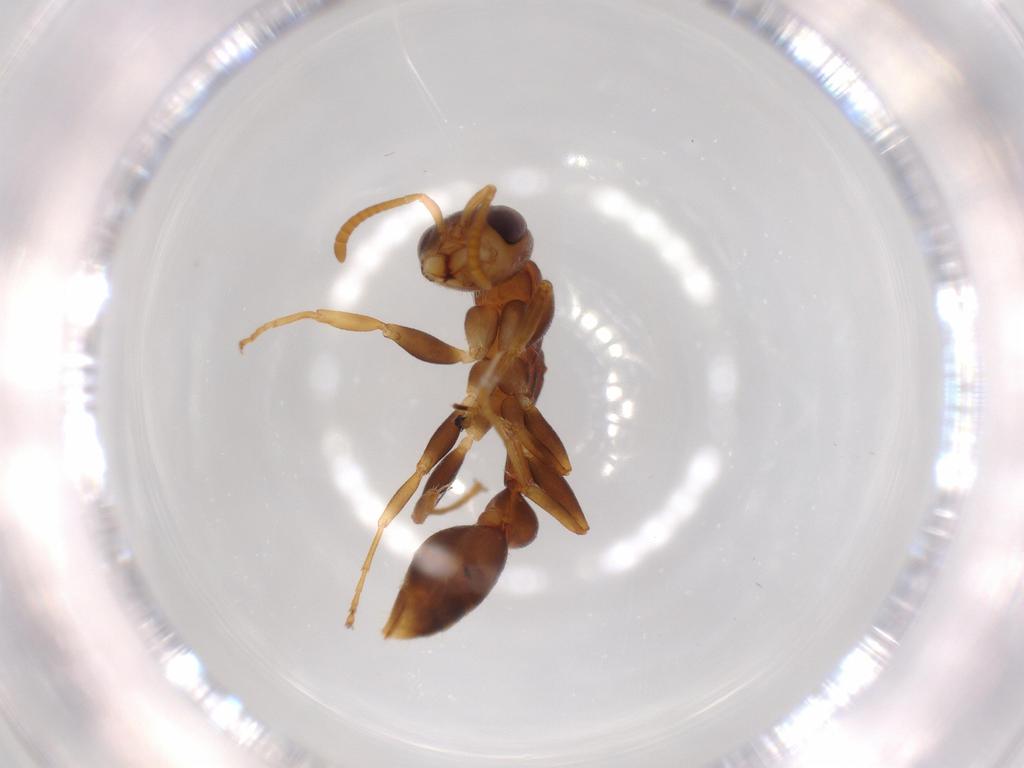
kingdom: Animalia
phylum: Arthropoda
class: Insecta
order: Hymenoptera
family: Formicidae
